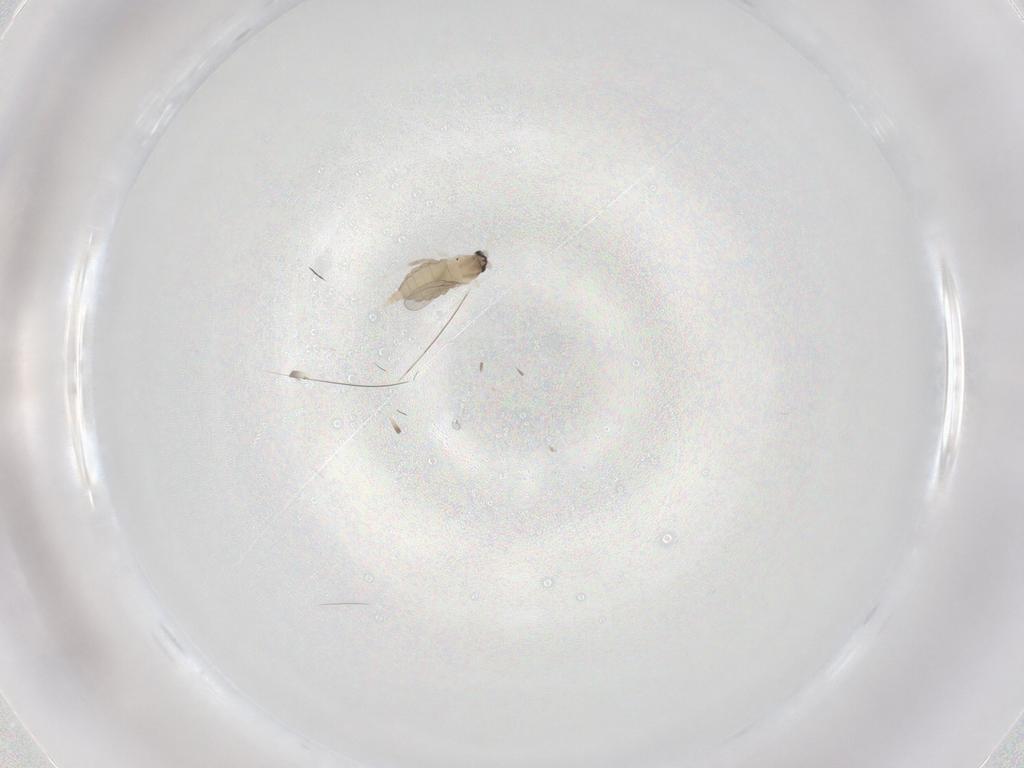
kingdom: Animalia
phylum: Arthropoda
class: Insecta
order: Diptera
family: Cecidomyiidae
